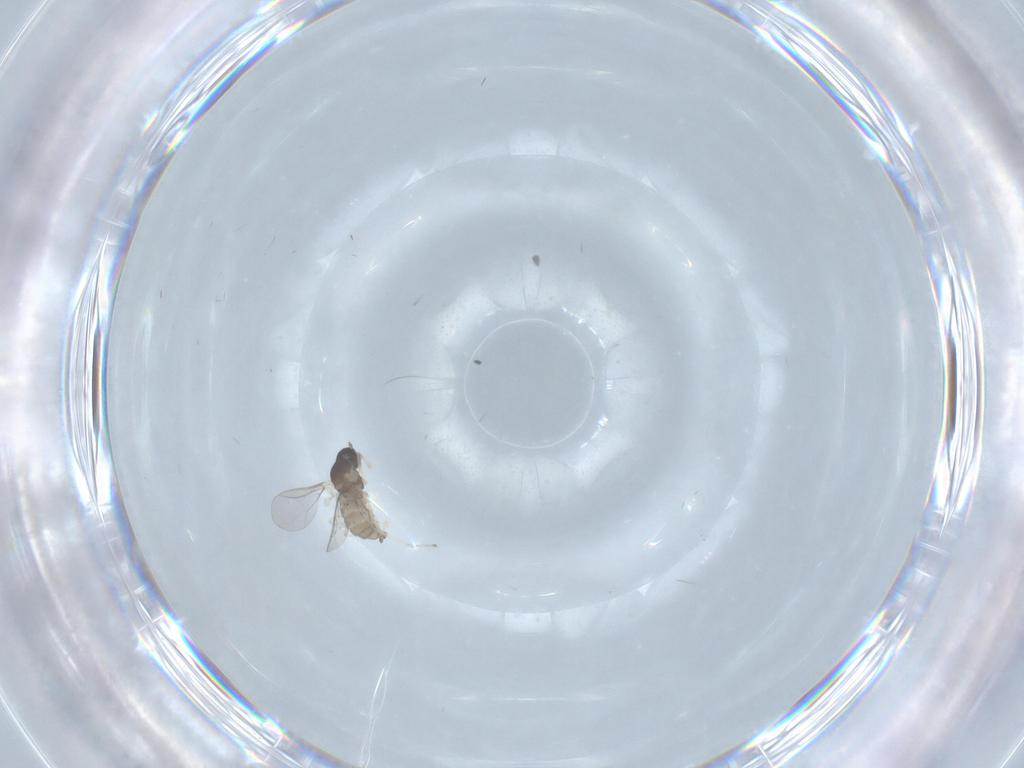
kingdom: Animalia
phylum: Arthropoda
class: Insecta
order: Diptera
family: Cecidomyiidae
